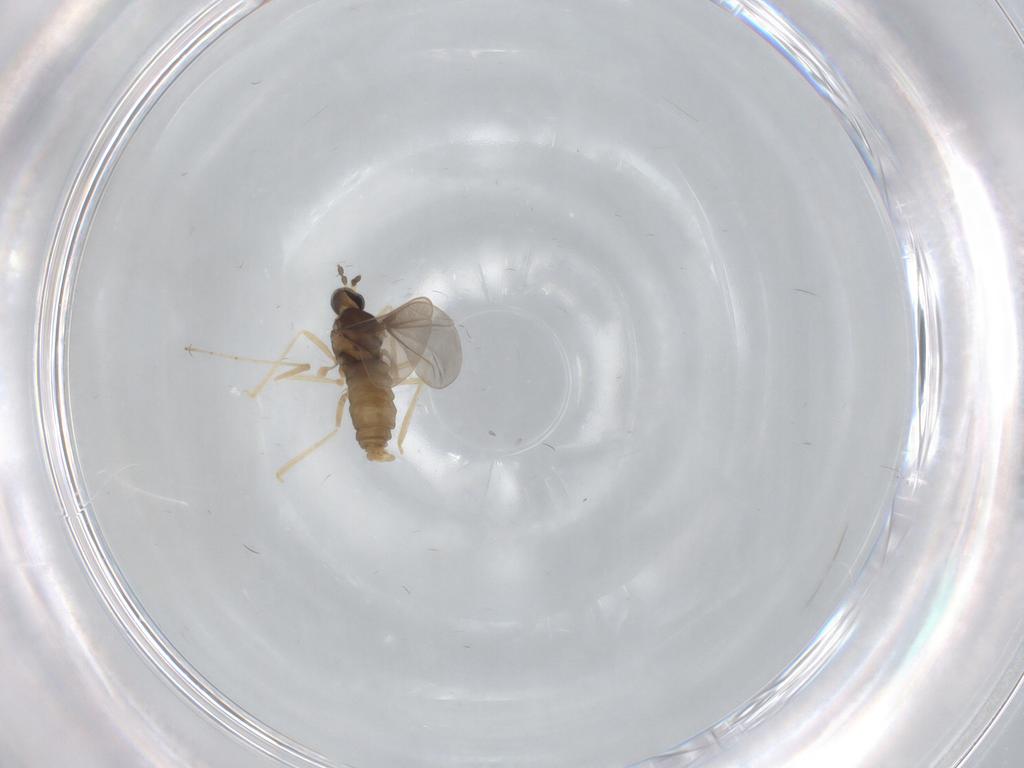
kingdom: Animalia
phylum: Arthropoda
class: Insecta
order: Diptera
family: Cecidomyiidae
